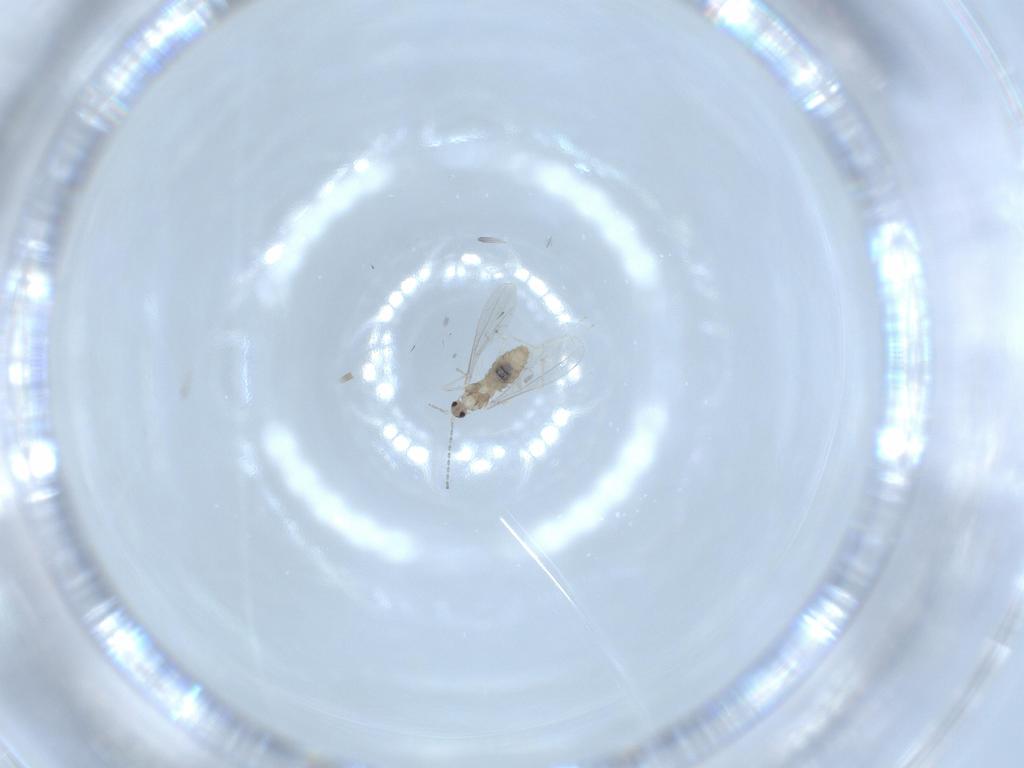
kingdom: Animalia
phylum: Arthropoda
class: Insecta
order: Diptera
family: Cecidomyiidae
